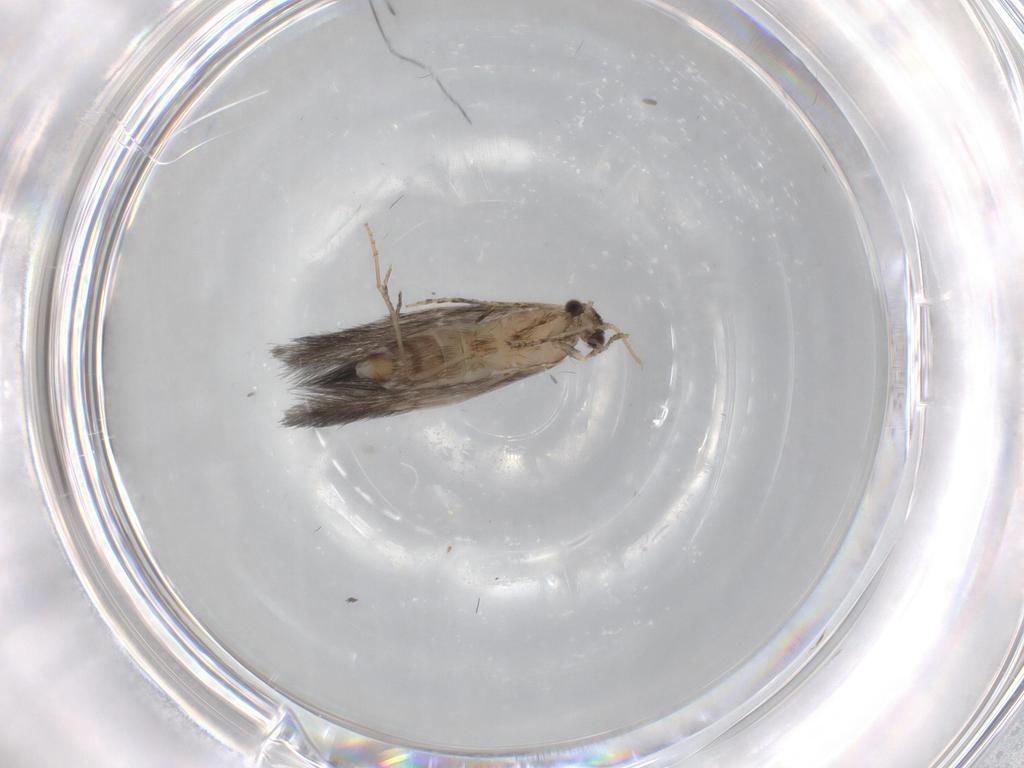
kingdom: Animalia
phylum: Arthropoda
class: Insecta
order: Trichoptera
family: Hydroptilidae
